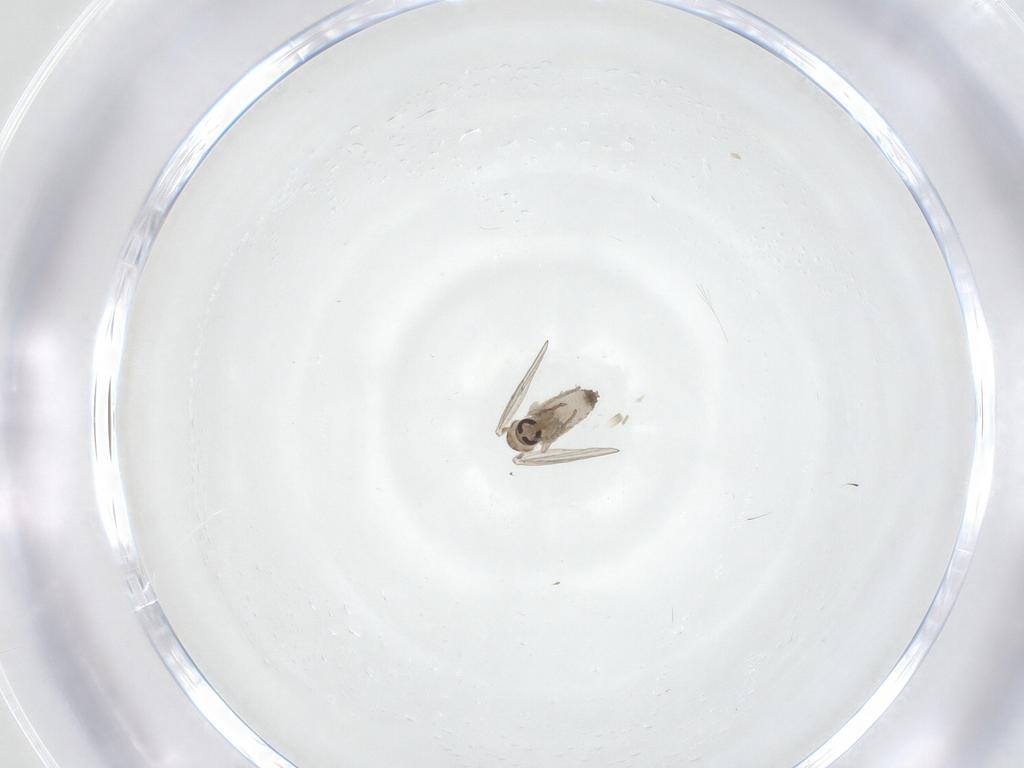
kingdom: Animalia
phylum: Arthropoda
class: Insecta
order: Diptera
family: Psychodidae
